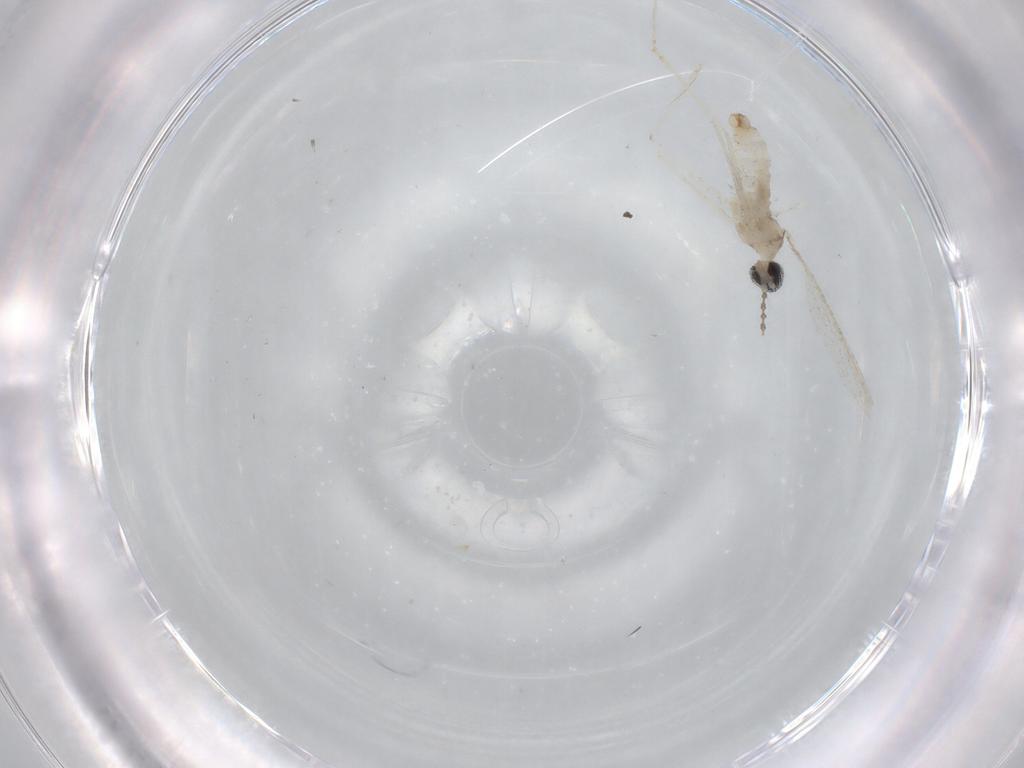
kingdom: Animalia
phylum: Arthropoda
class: Insecta
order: Diptera
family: Cecidomyiidae
